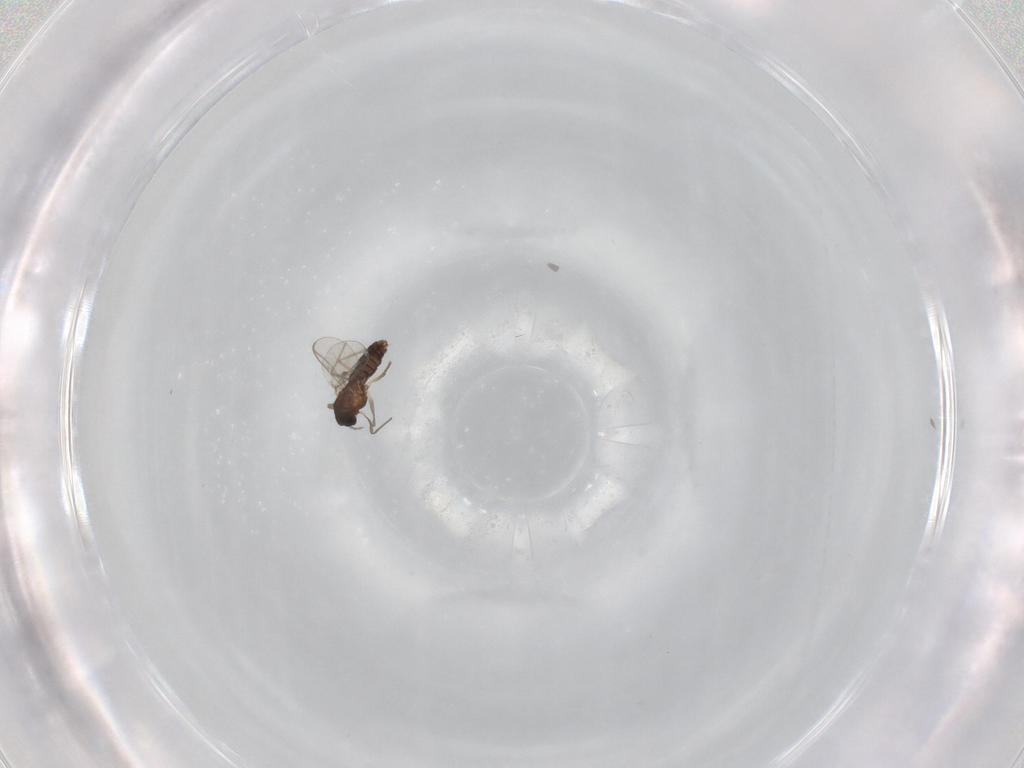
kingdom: Animalia
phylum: Arthropoda
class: Insecta
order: Diptera
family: Chironomidae
